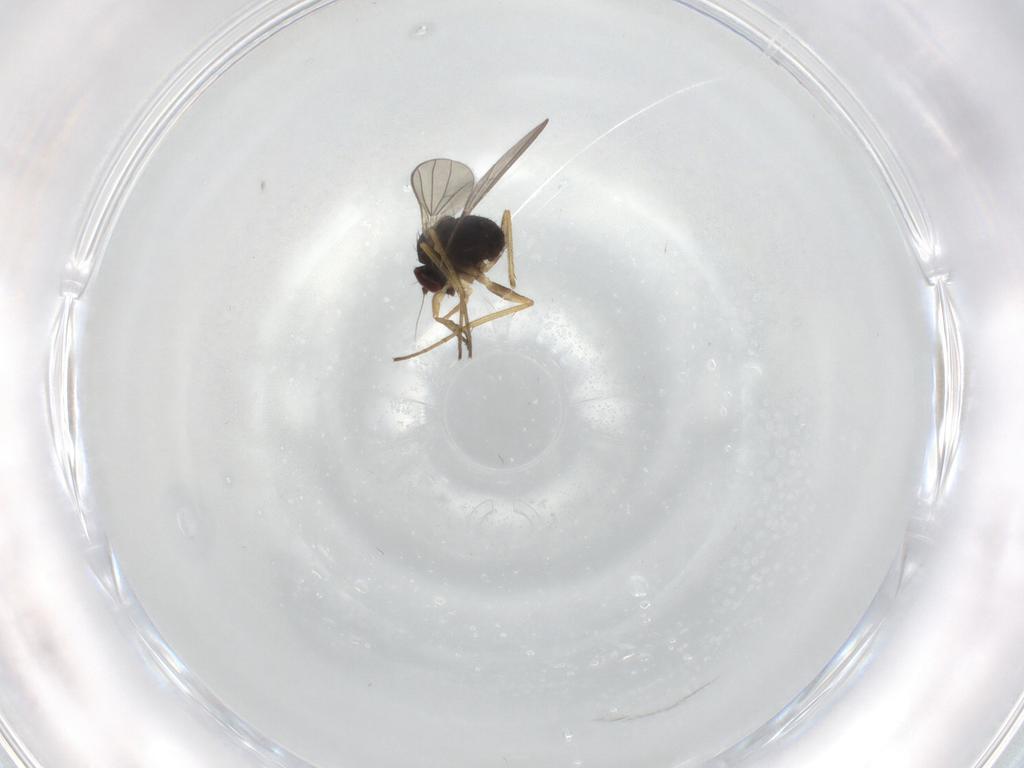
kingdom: Animalia
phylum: Arthropoda
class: Insecta
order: Diptera
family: Dolichopodidae
